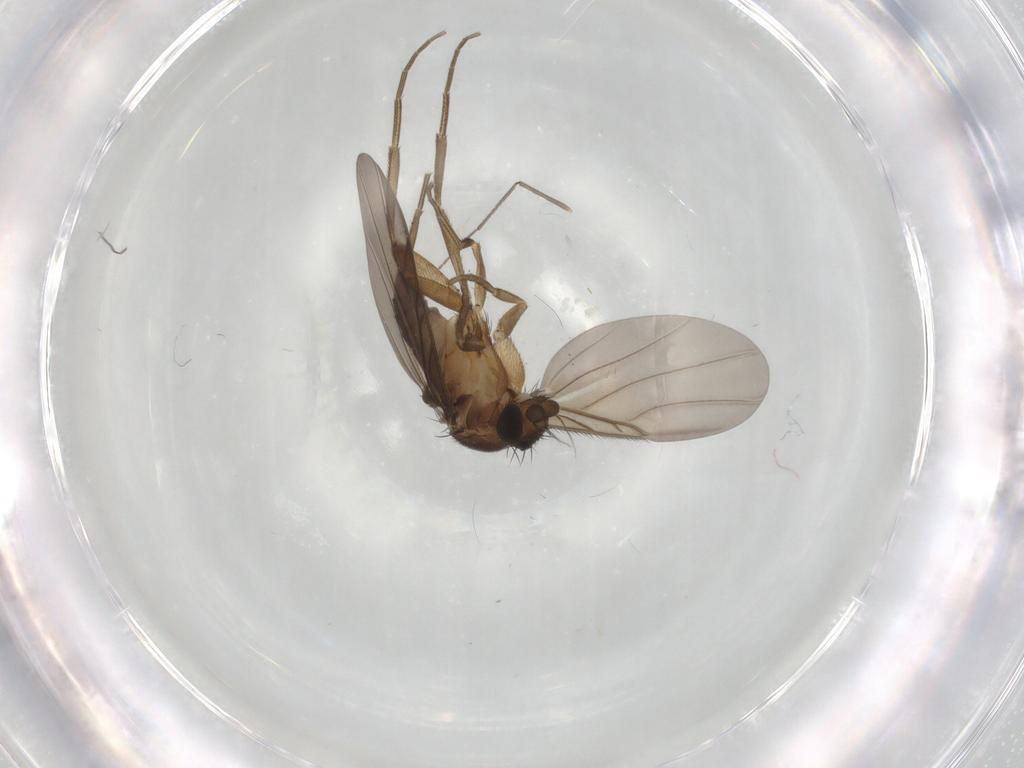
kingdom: Animalia
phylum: Arthropoda
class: Insecta
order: Diptera
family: Phoridae
